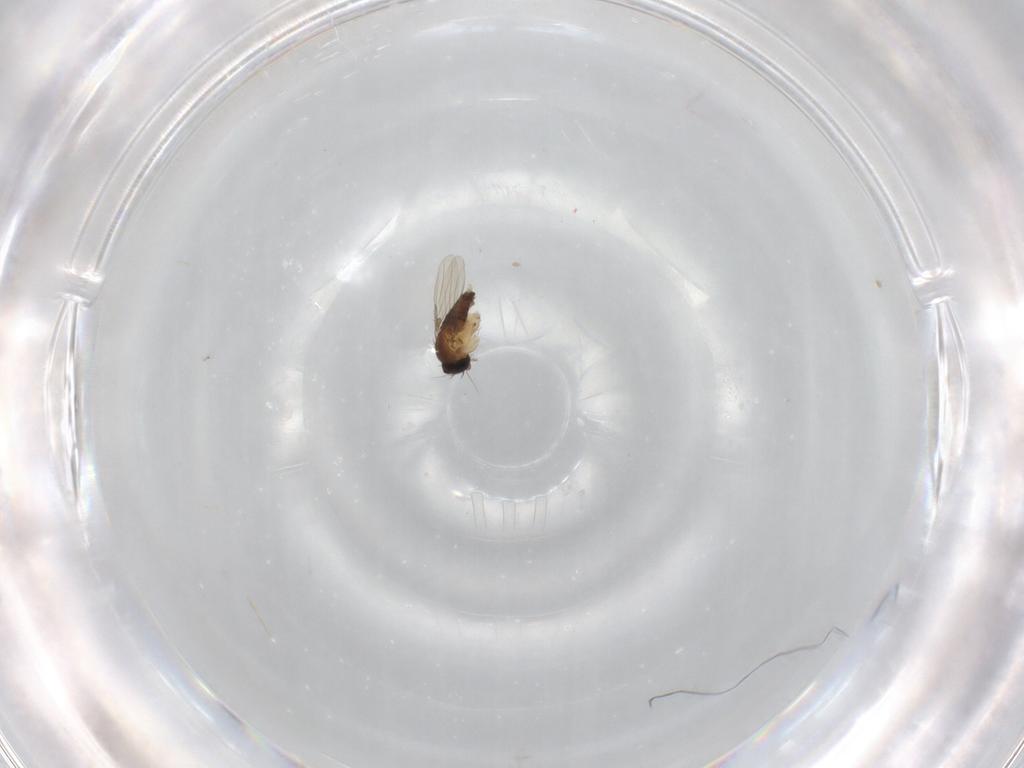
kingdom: Animalia
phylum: Arthropoda
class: Insecta
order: Diptera
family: Phoridae
